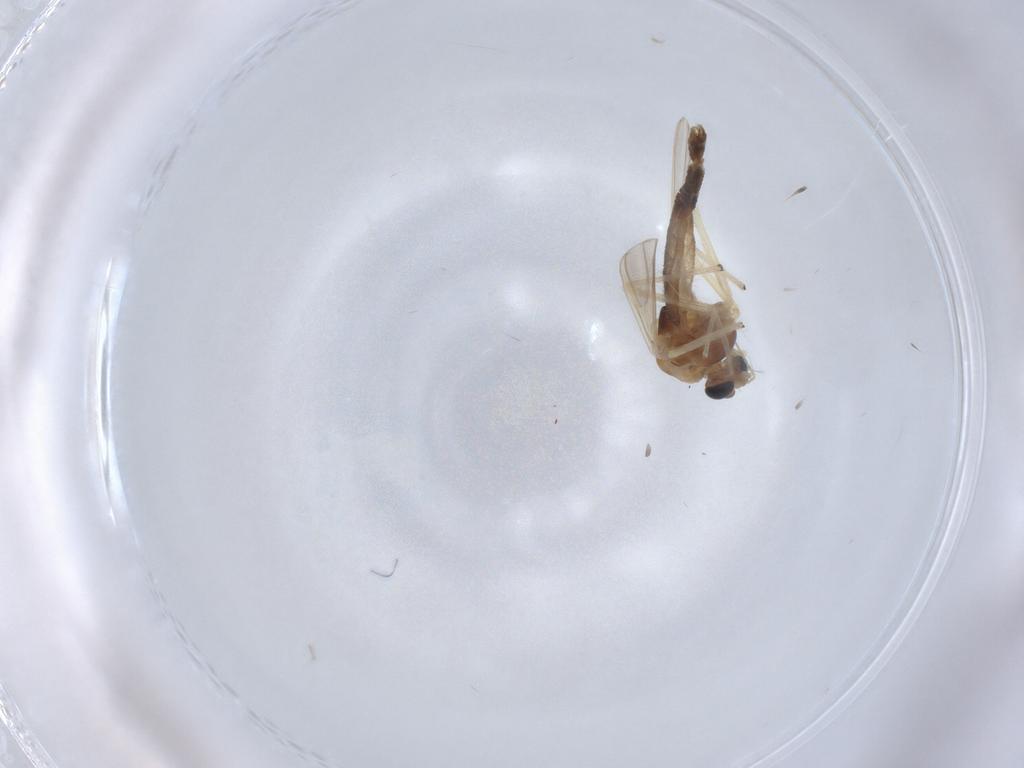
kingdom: Animalia
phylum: Arthropoda
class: Insecta
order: Diptera
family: Chironomidae
